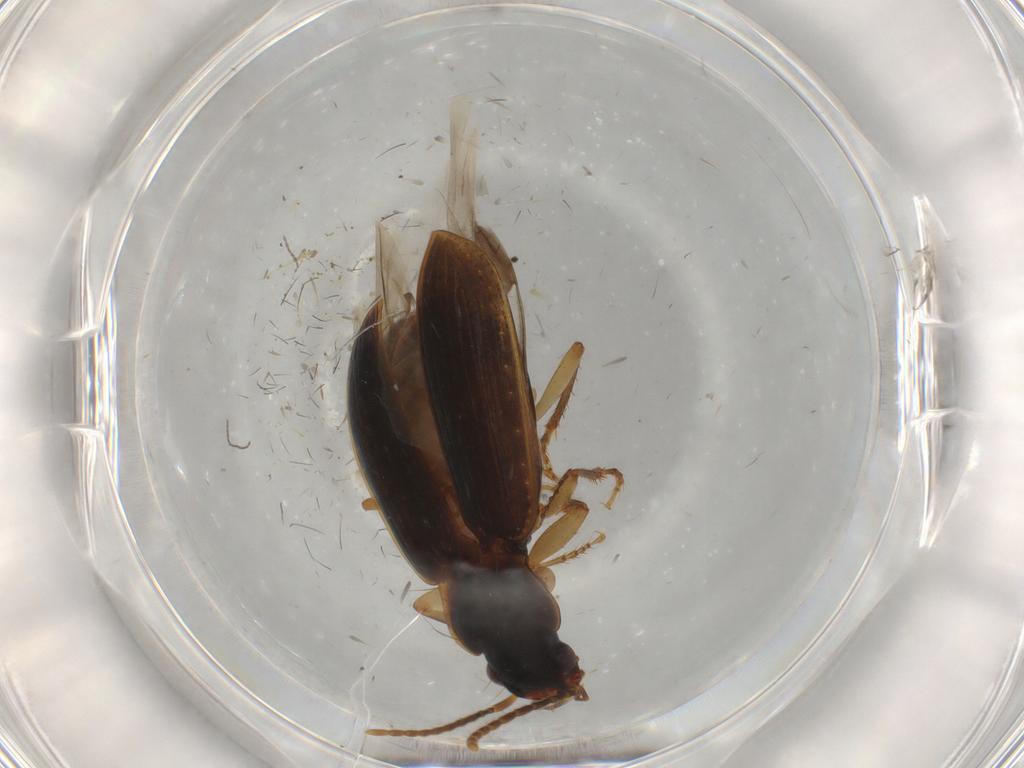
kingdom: Animalia
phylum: Arthropoda
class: Insecta
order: Coleoptera
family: Carabidae
